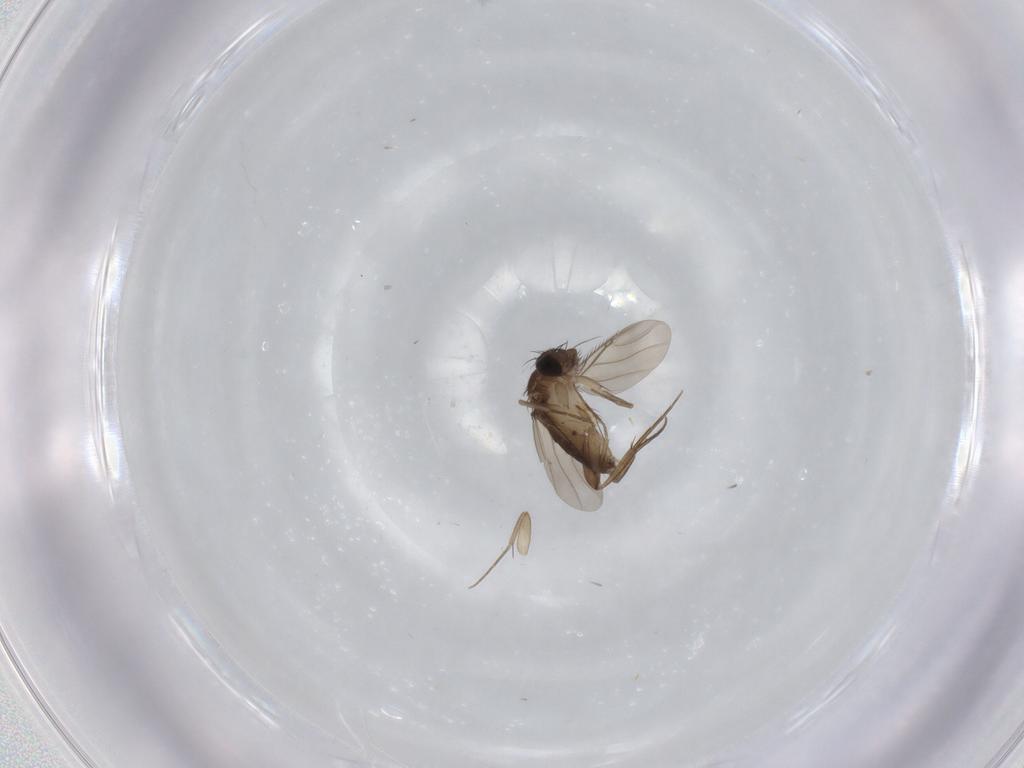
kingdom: Animalia
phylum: Arthropoda
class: Insecta
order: Diptera
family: Phoridae
